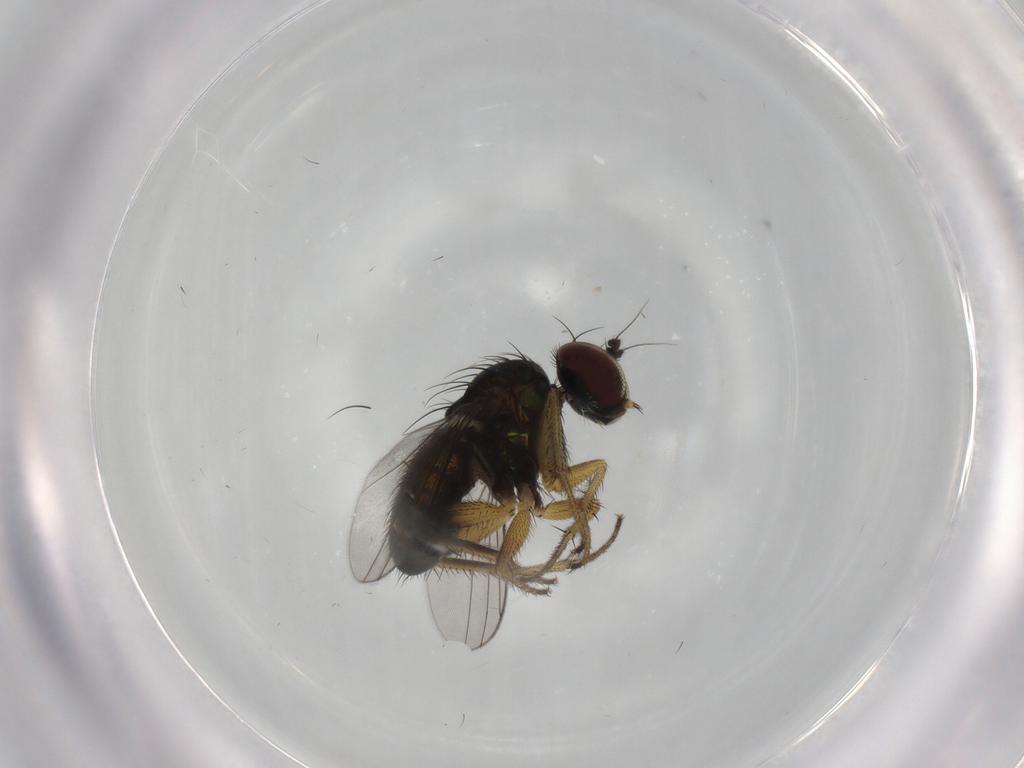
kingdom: Animalia
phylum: Arthropoda
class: Insecta
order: Diptera
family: Dolichopodidae
